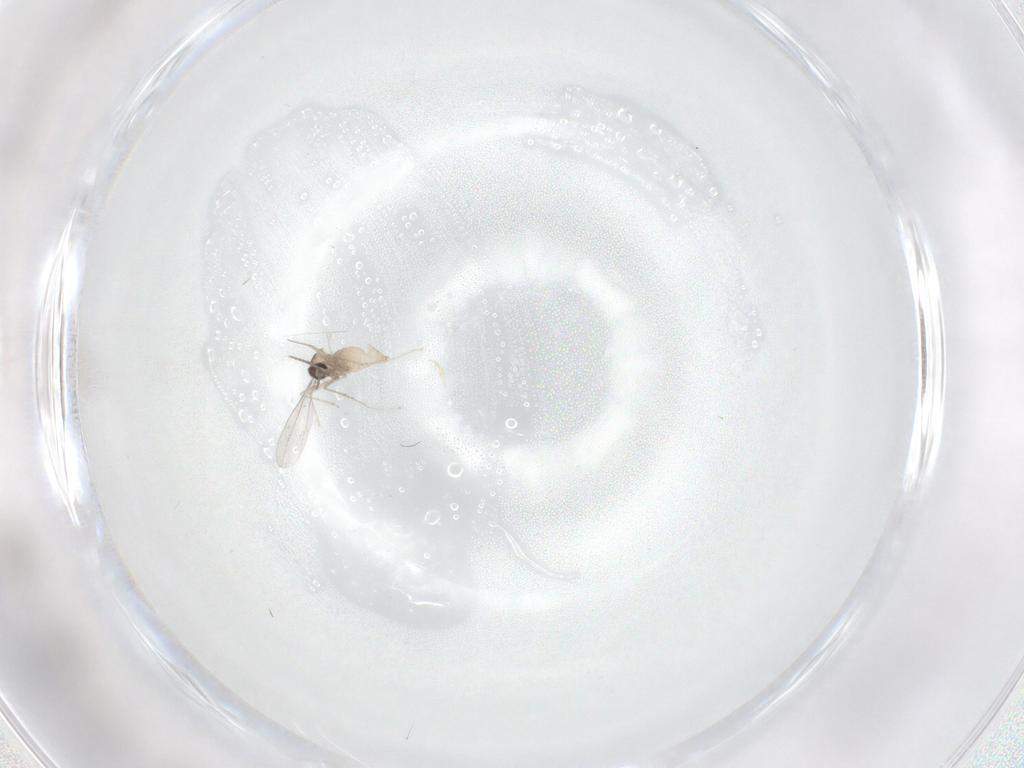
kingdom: Animalia
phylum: Arthropoda
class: Insecta
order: Diptera
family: Cecidomyiidae
